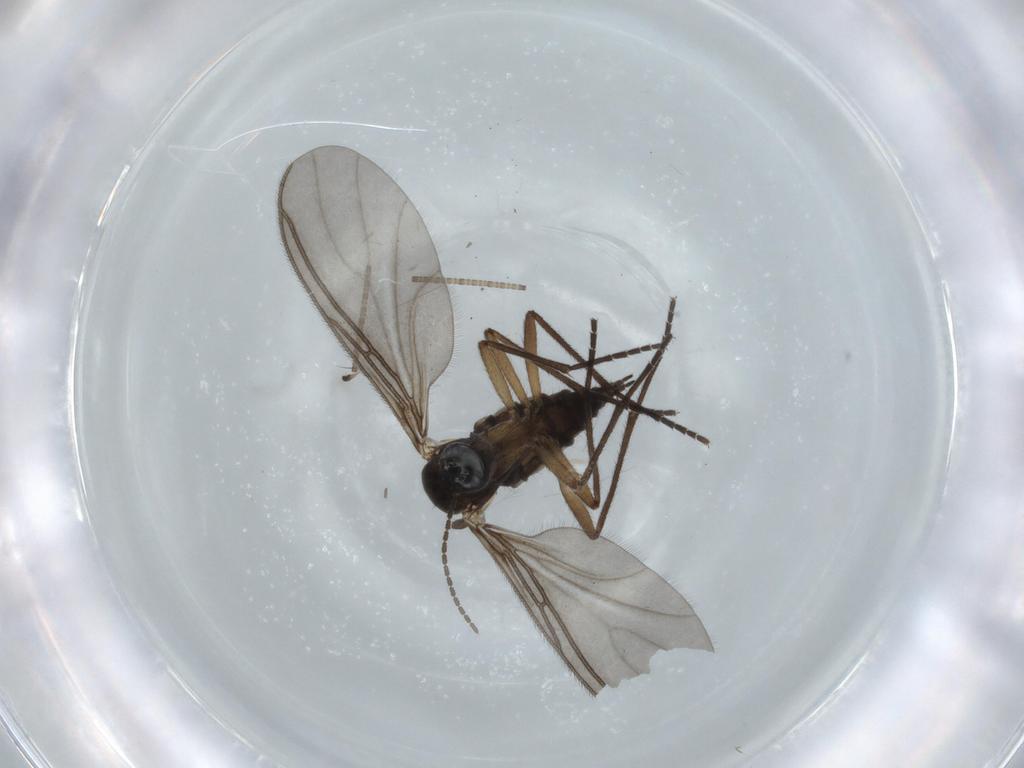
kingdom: Animalia
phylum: Arthropoda
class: Insecta
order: Diptera
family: Sciaridae
